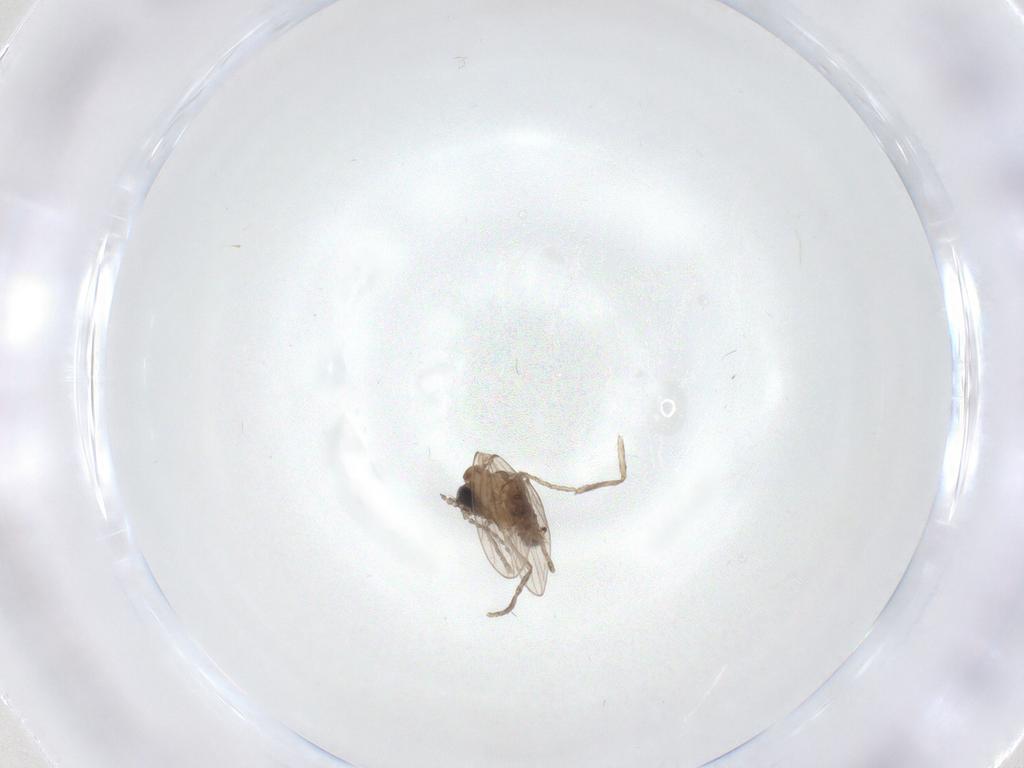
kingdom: Animalia
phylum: Arthropoda
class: Insecta
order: Diptera
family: Psychodidae
